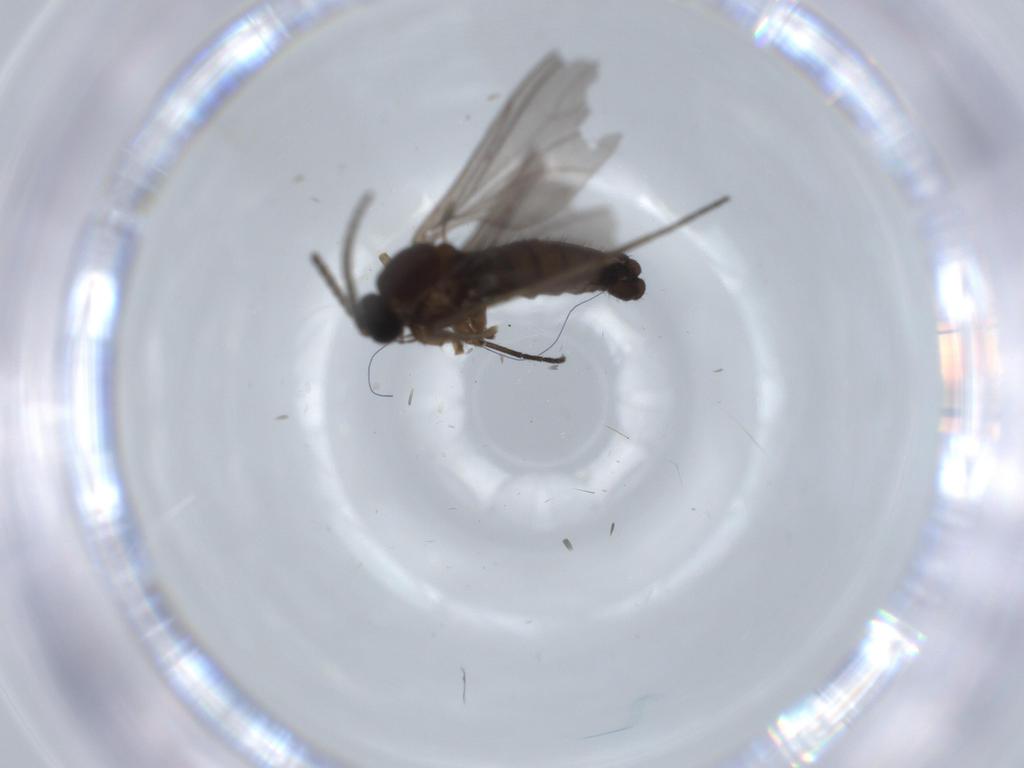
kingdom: Animalia
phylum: Arthropoda
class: Insecta
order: Diptera
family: Sciaridae
